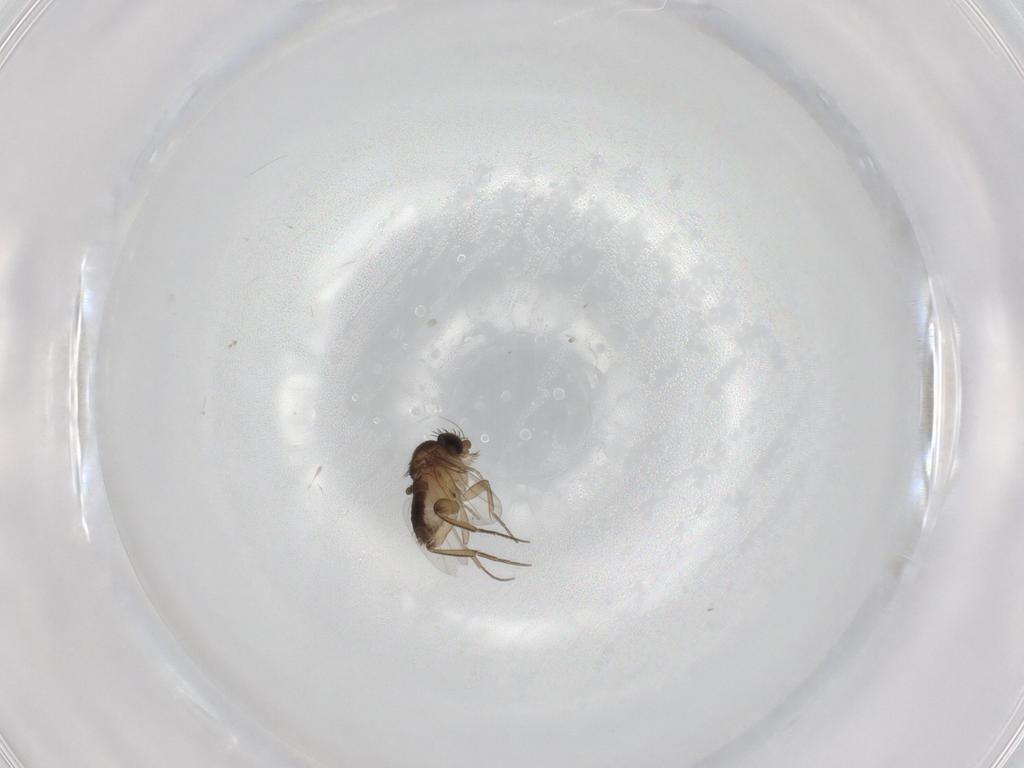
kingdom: Animalia
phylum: Arthropoda
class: Insecta
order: Diptera
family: Phoridae
